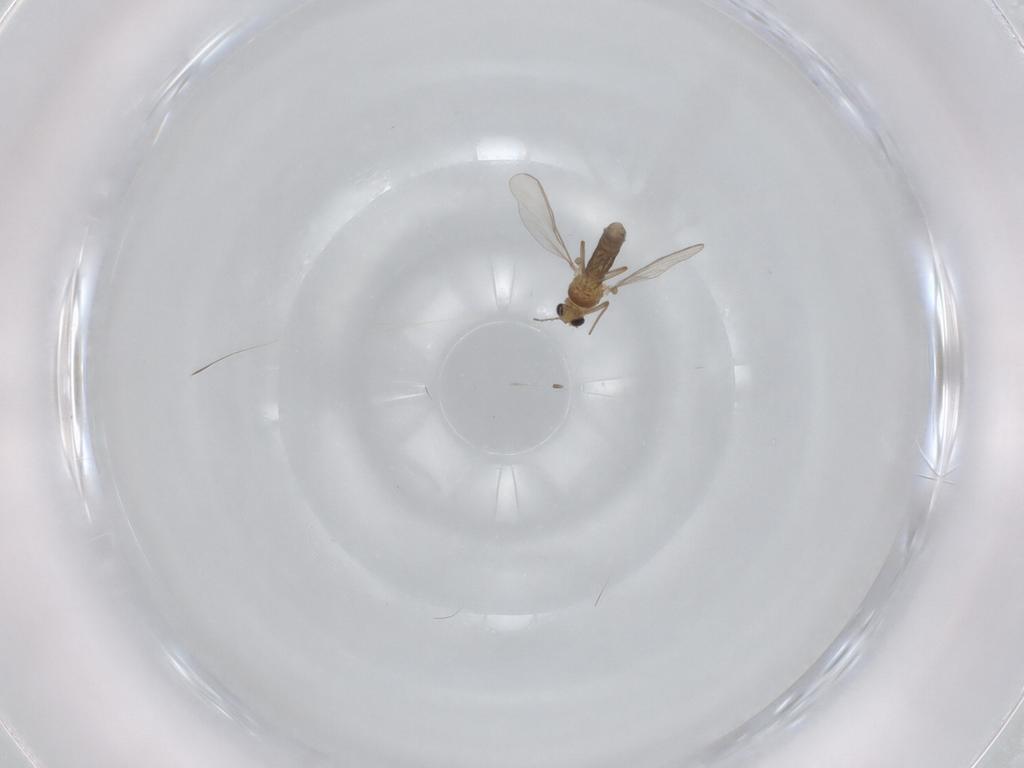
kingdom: Animalia
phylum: Arthropoda
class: Insecta
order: Diptera
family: Chironomidae
